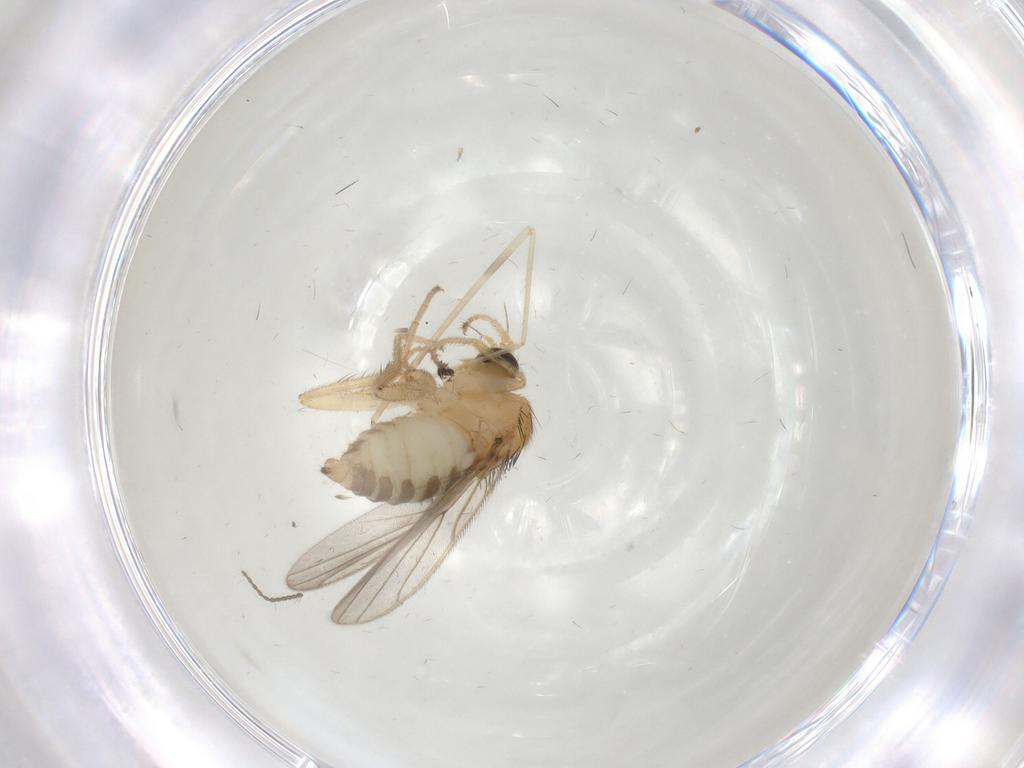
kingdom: Animalia
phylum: Arthropoda
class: Insecta
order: Diptera
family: Hybotidae
